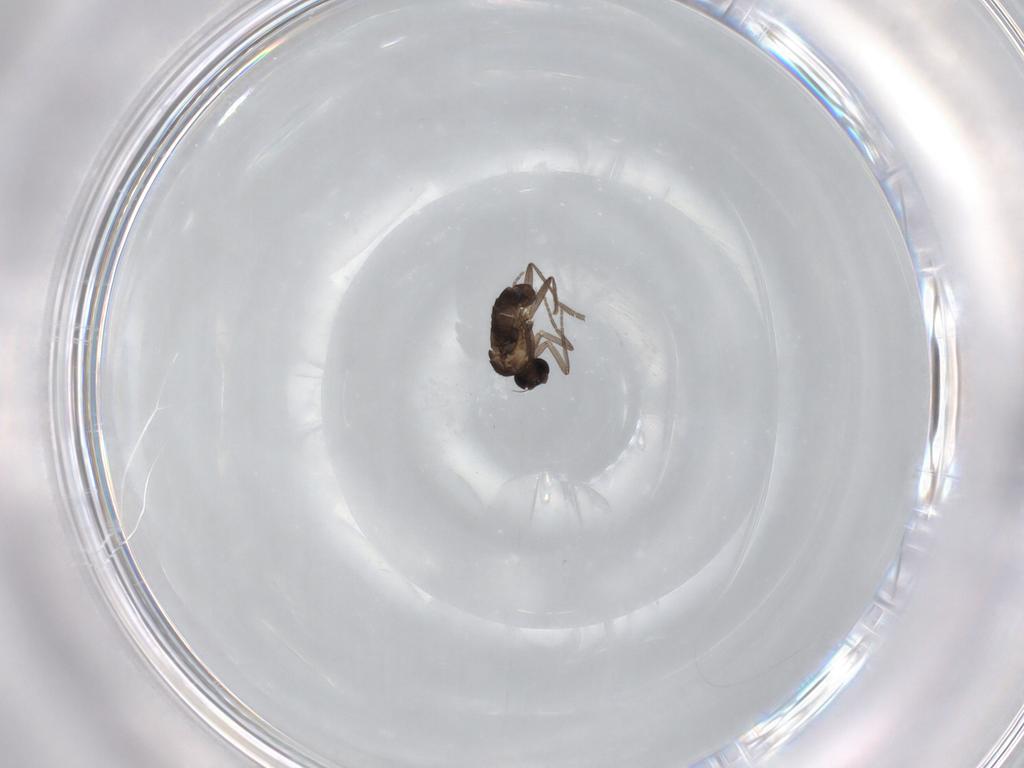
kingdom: Animalia
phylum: Arthropoda
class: Insecta
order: Diptera
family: Phoridae
